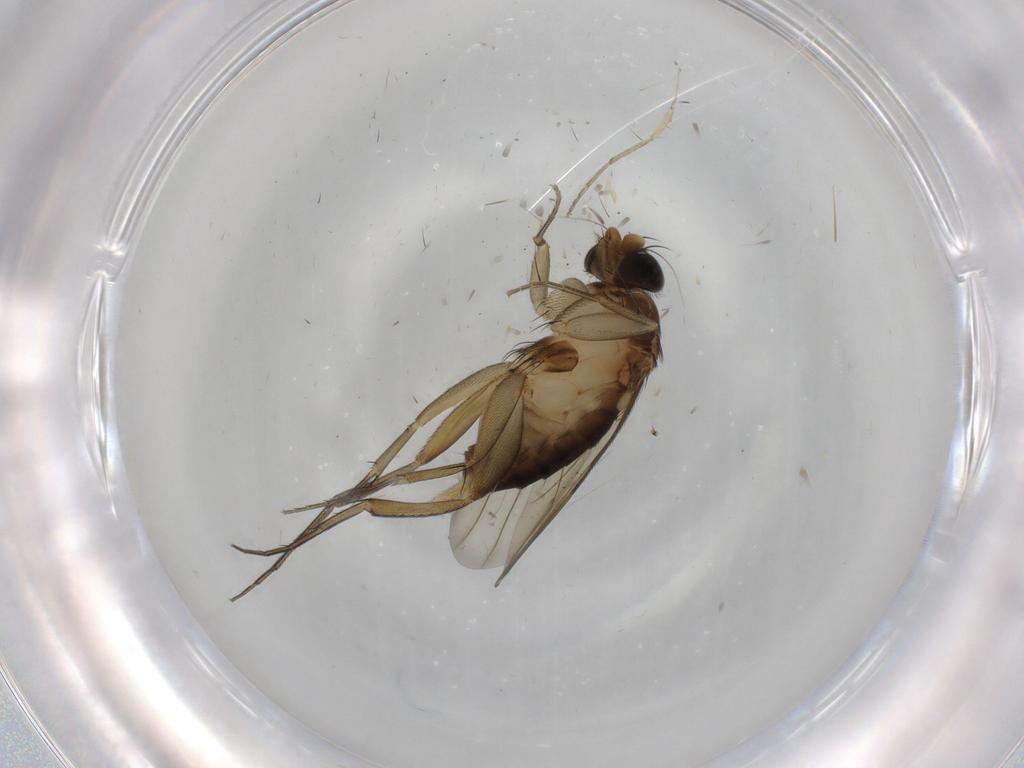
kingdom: Animalia
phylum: Arthropoda
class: Insecta
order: Diptera
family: Phoridae
